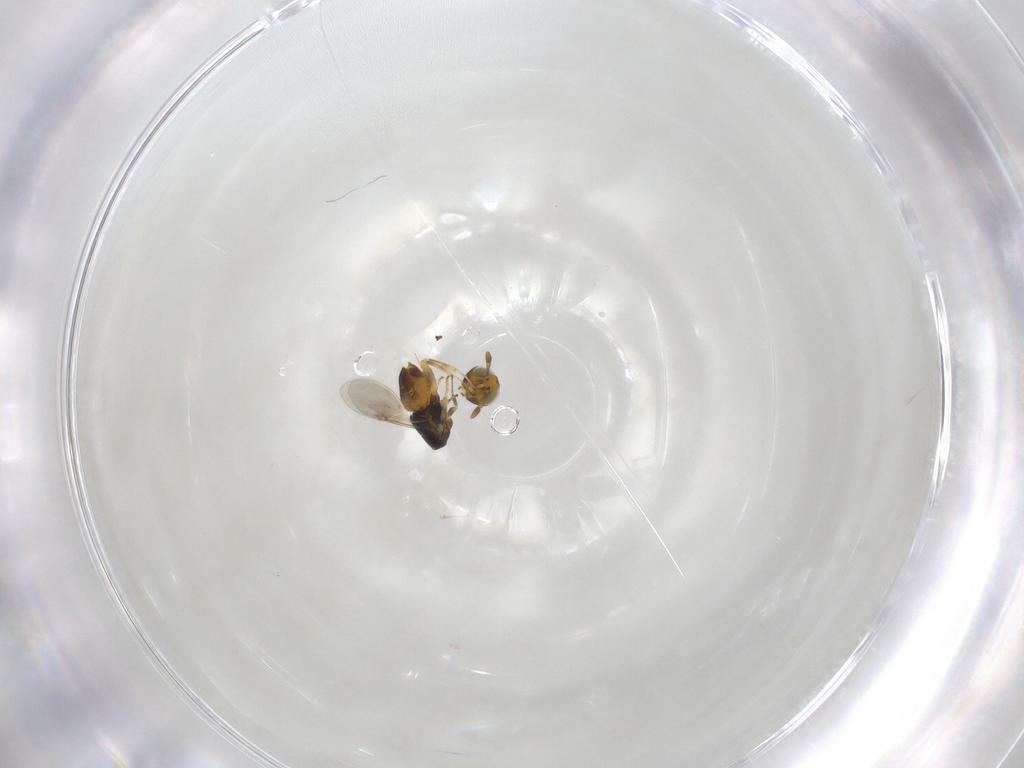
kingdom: Animalia
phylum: Arthropoda
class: Insecta
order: Hymenoptera
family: Encyrtidae
